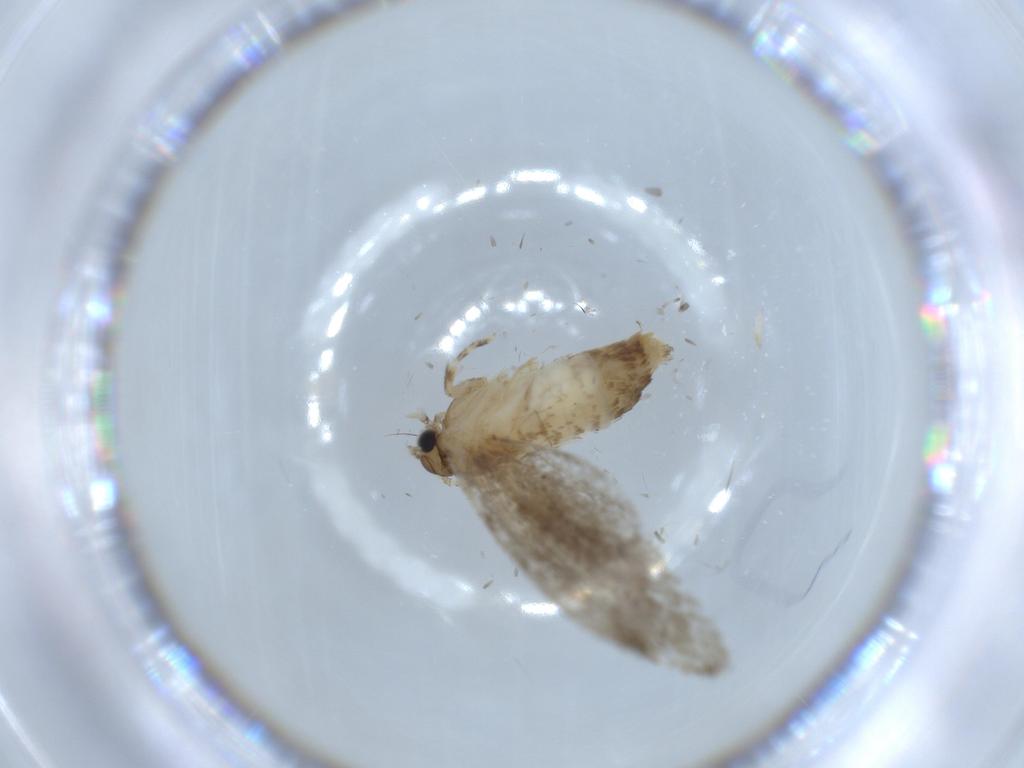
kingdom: Animalia
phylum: Arthropoda
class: Insecta
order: Lepidoptera
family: Tineidae
